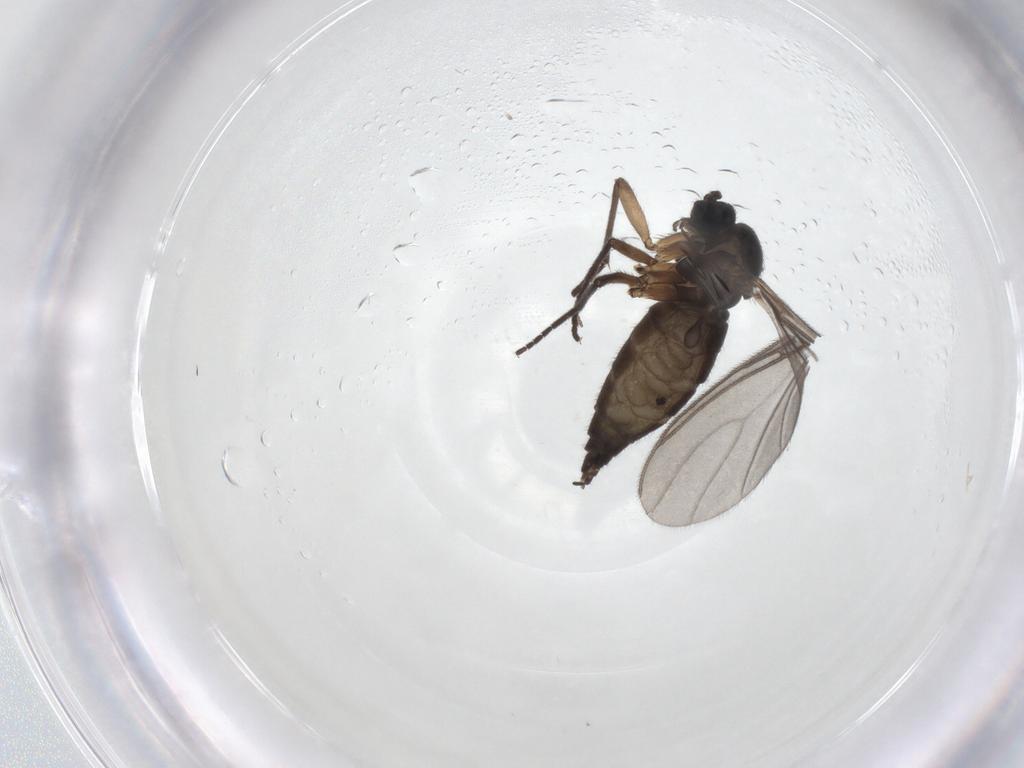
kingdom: Animalia
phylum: Arthropoda
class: Insecta
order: Diptera
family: Sciaridae
